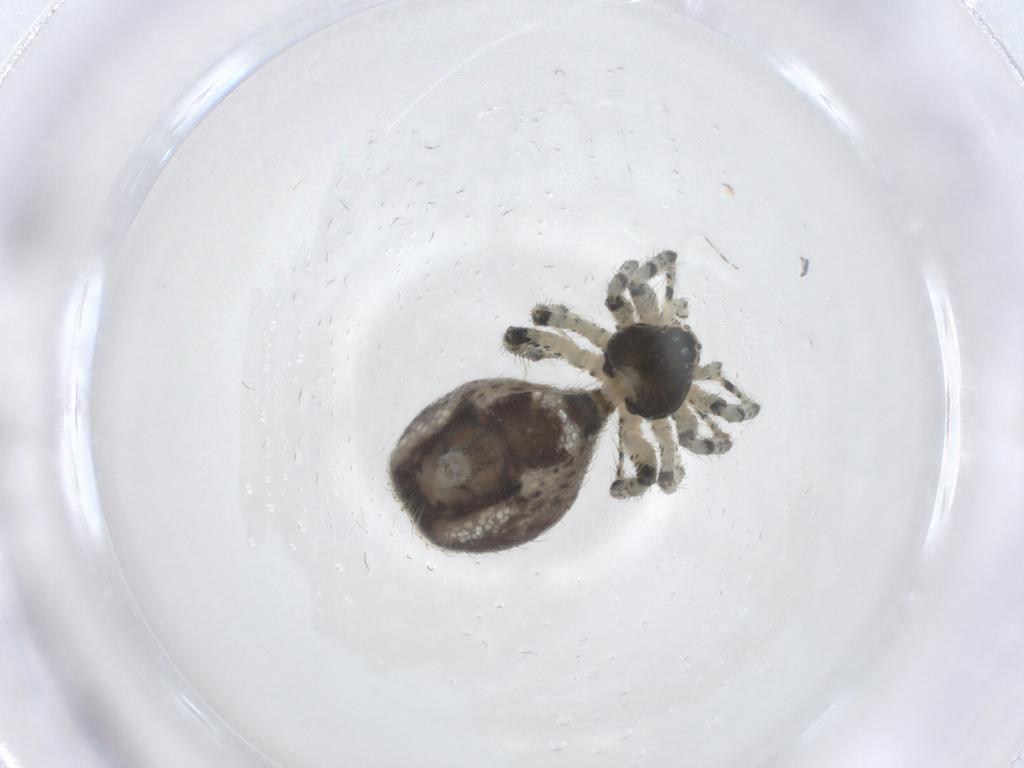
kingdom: Animalia
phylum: Arthropoda
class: Arachnida
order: Araneae
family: Theridiidae
